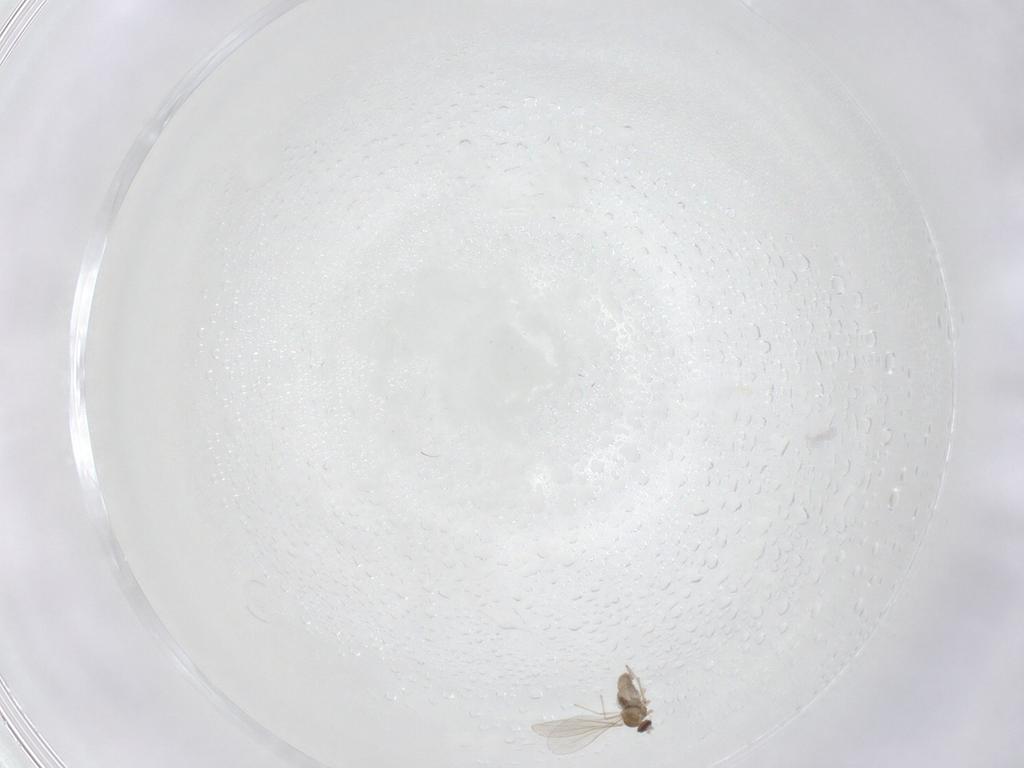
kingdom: Animalia
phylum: Arthropoda
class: Insecta
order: Diptera
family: Cecidomyiidae
